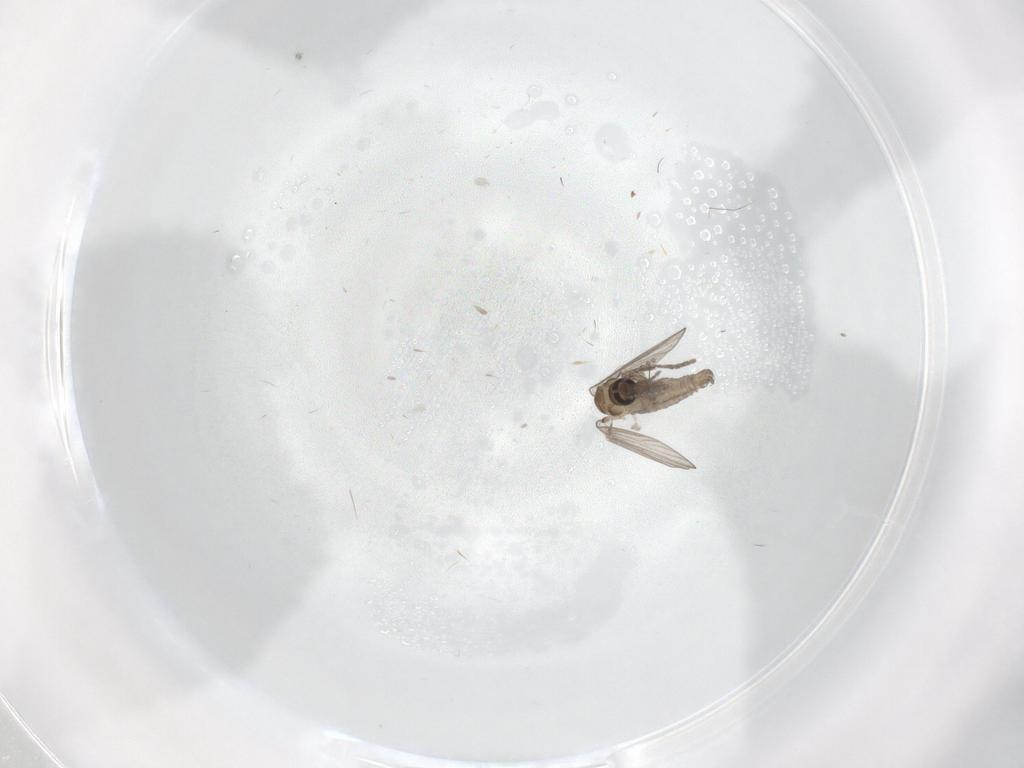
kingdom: Animalia
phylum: Arthropoda
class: Insecta
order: Diptera
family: Psychodidae
